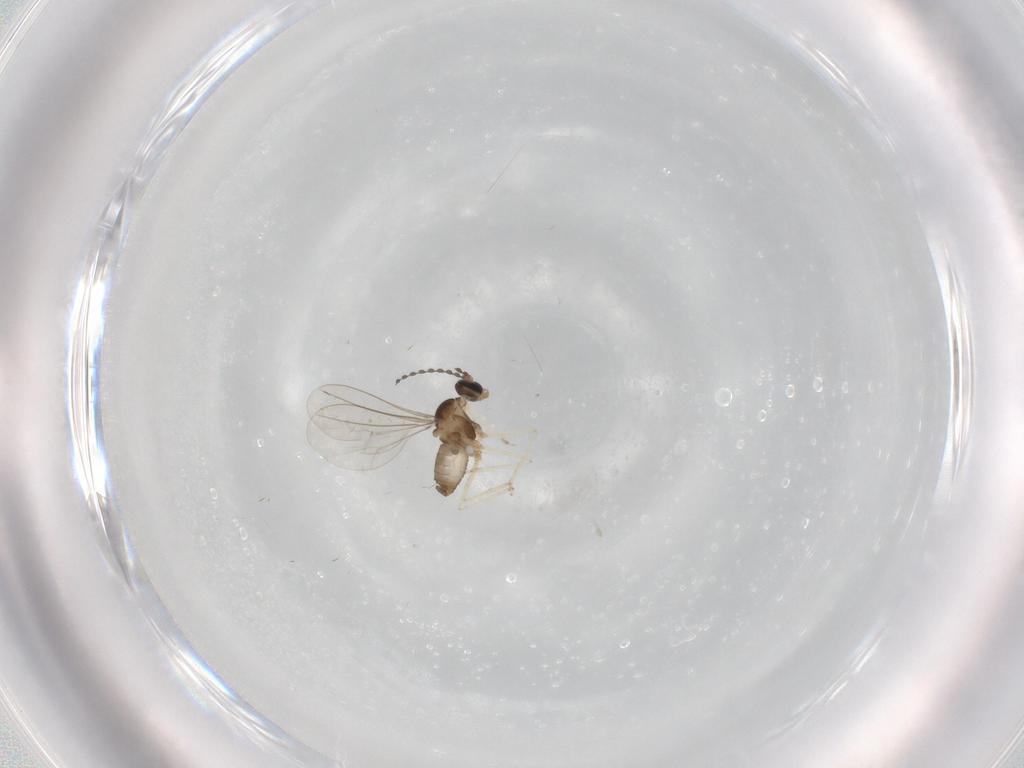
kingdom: Animalia
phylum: Arthropoda
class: Insecta
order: Diptera
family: Cecidomyiidae
